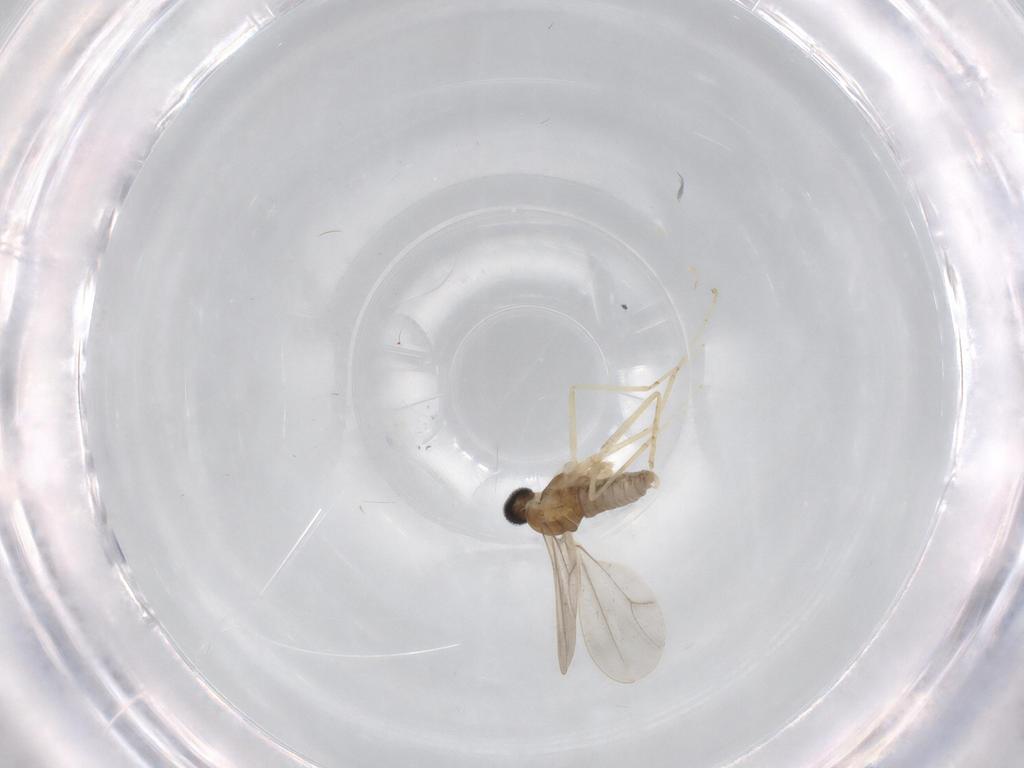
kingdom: Animalia
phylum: Arthropoda
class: Insecta
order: Diptera
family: Cecidomyiidae
